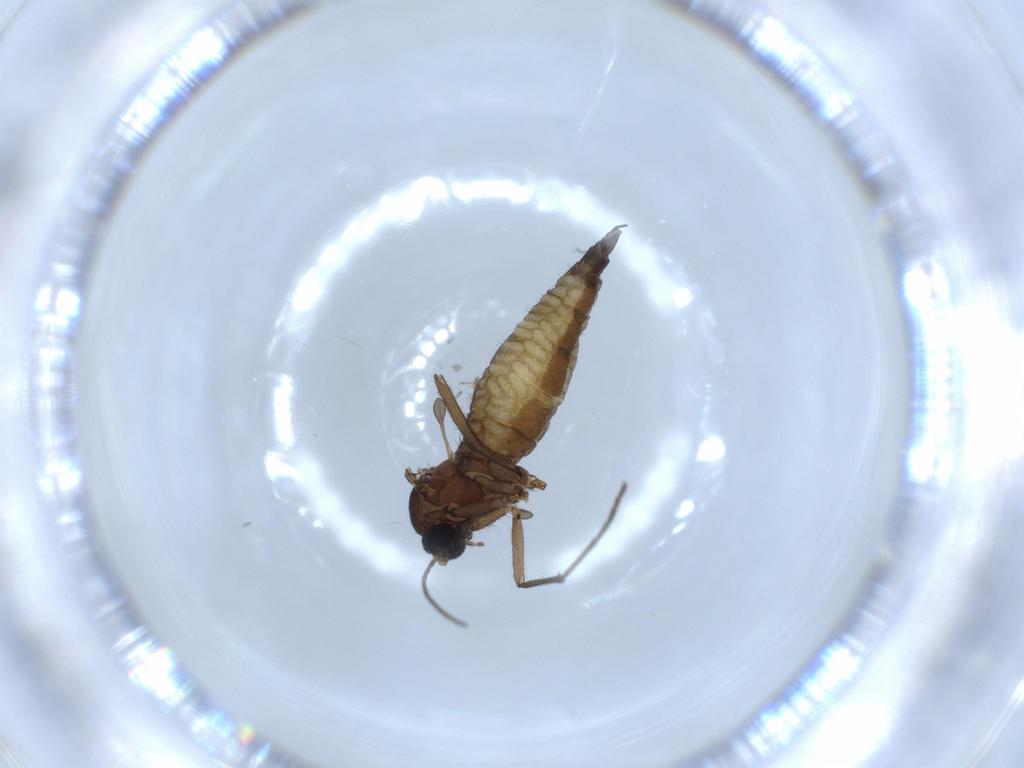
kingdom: Animalia
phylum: Arthropoda
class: Insecta
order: Diptera
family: Sciaridae
